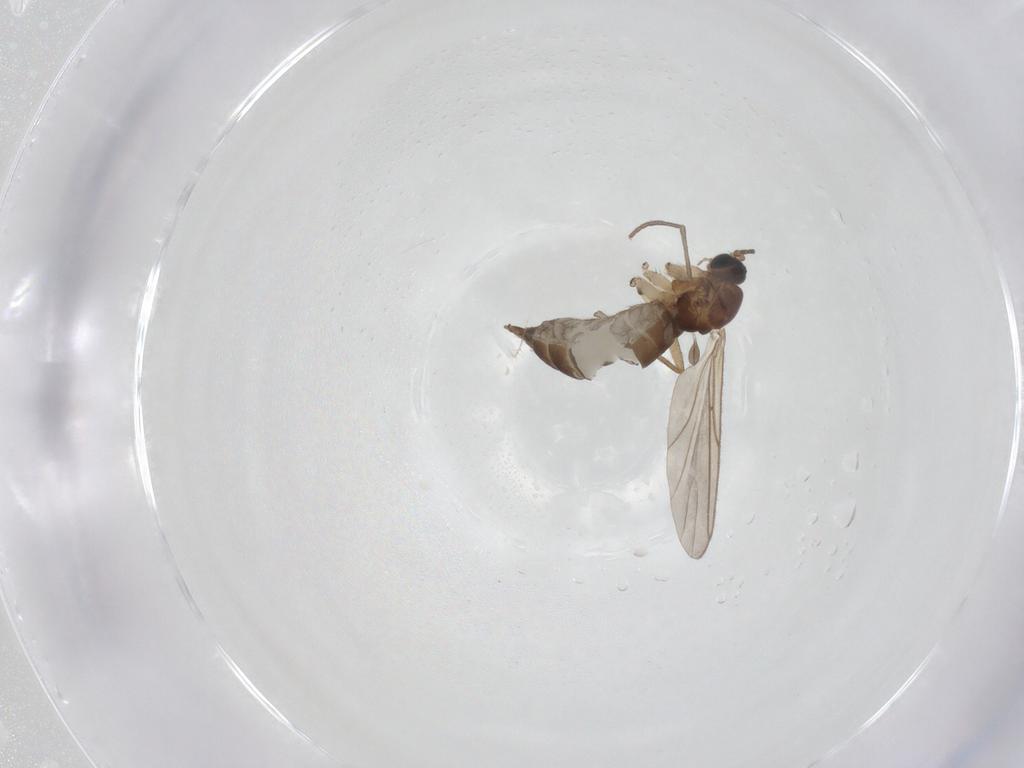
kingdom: Animalia
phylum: Arthropoda
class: Insecta
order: Diptera
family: Sciaridae
